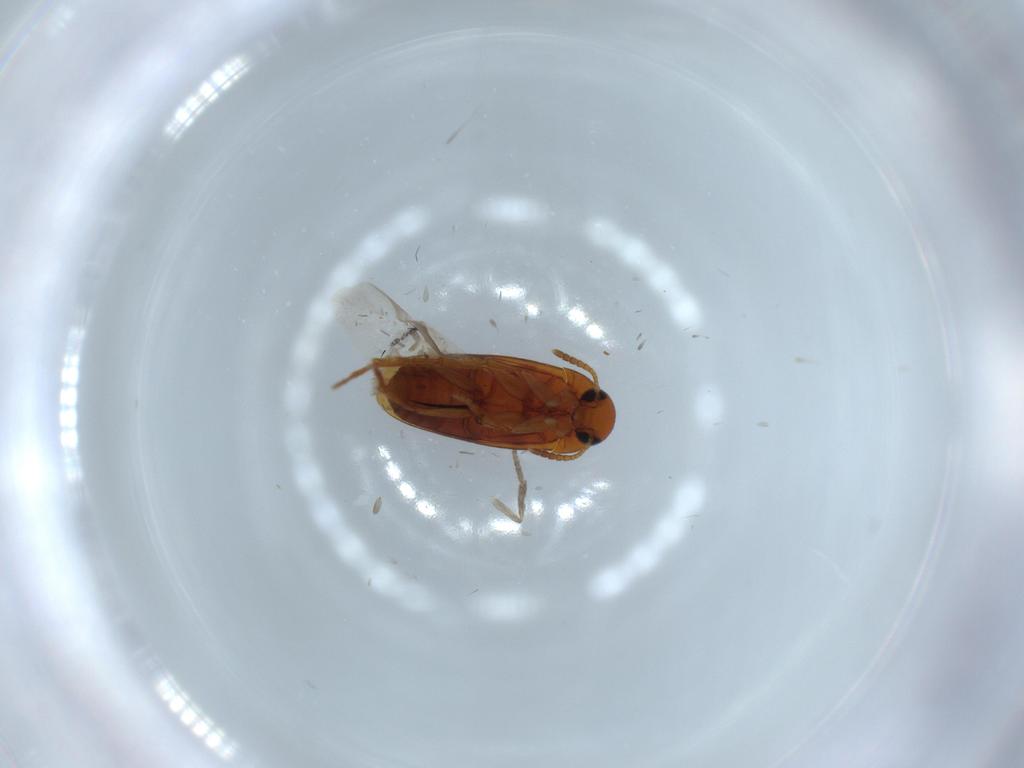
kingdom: Animalia
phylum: Arthropoda
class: Insecta
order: Coleoptera
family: Scraptiidae
